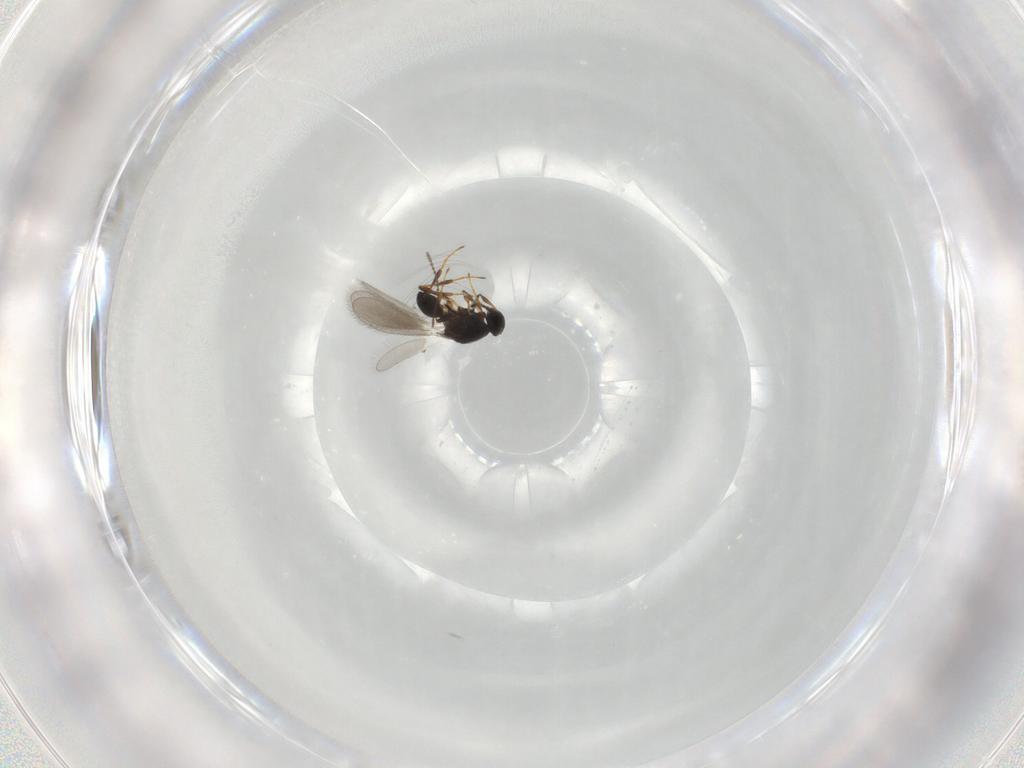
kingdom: Animalia
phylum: Arthropoda
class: Insecta
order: Hymenoptera
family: Platygastridae
